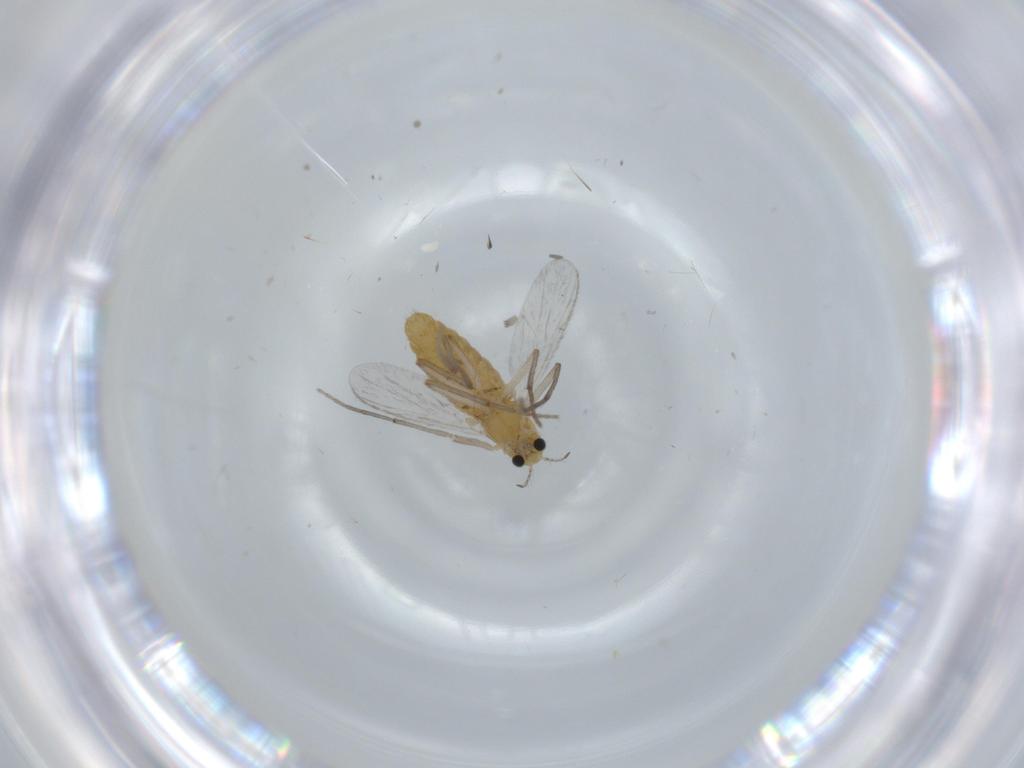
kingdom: Animalia
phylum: Arthropoda
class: Insecta
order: Diptera
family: Chironomidae
